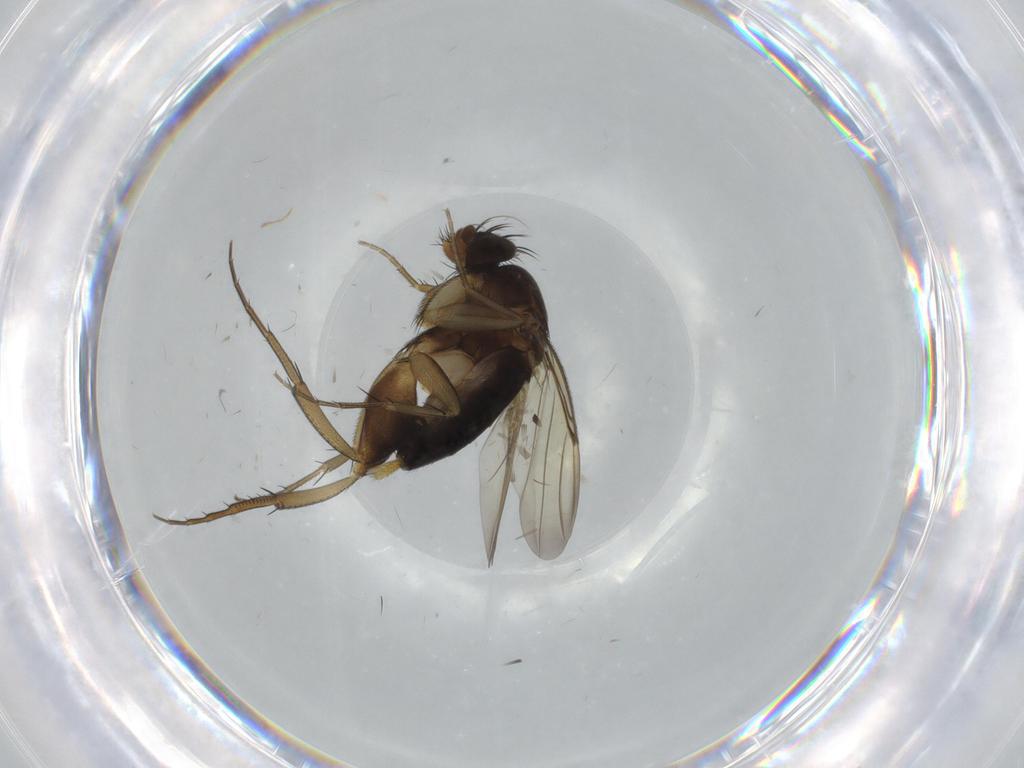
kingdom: Animalia
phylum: Arthropoda
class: Insecta
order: Diptera
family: Phoridae
